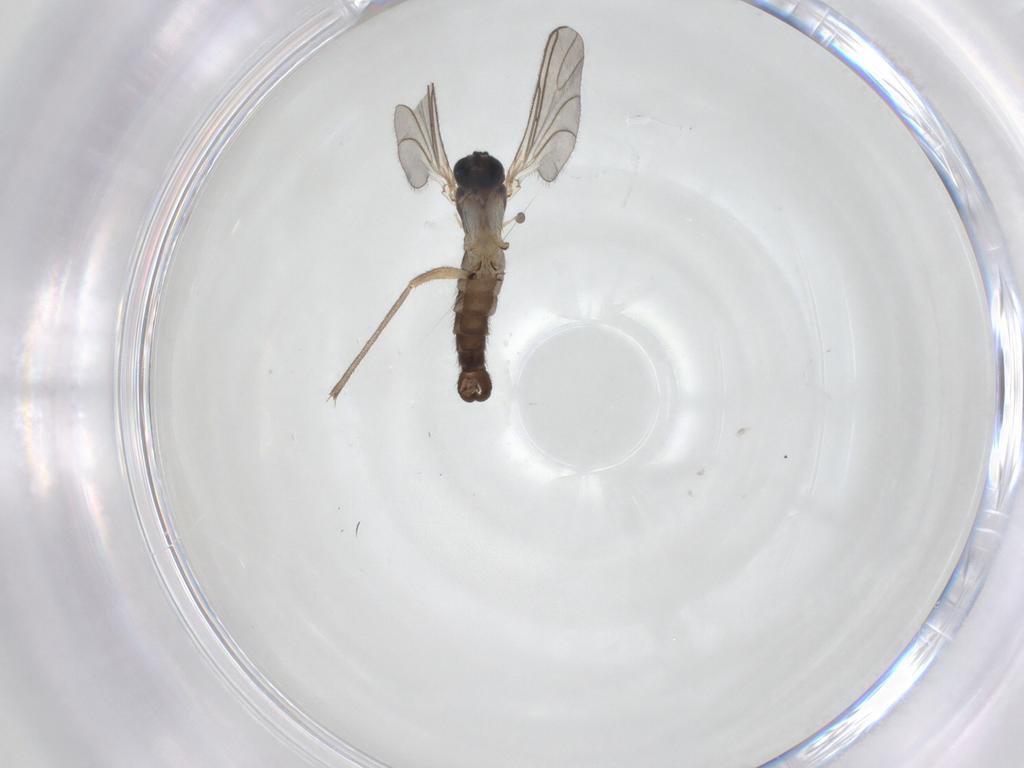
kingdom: Animalia
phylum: Arthropoda
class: Insecta
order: Diptera
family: Sciaridae
